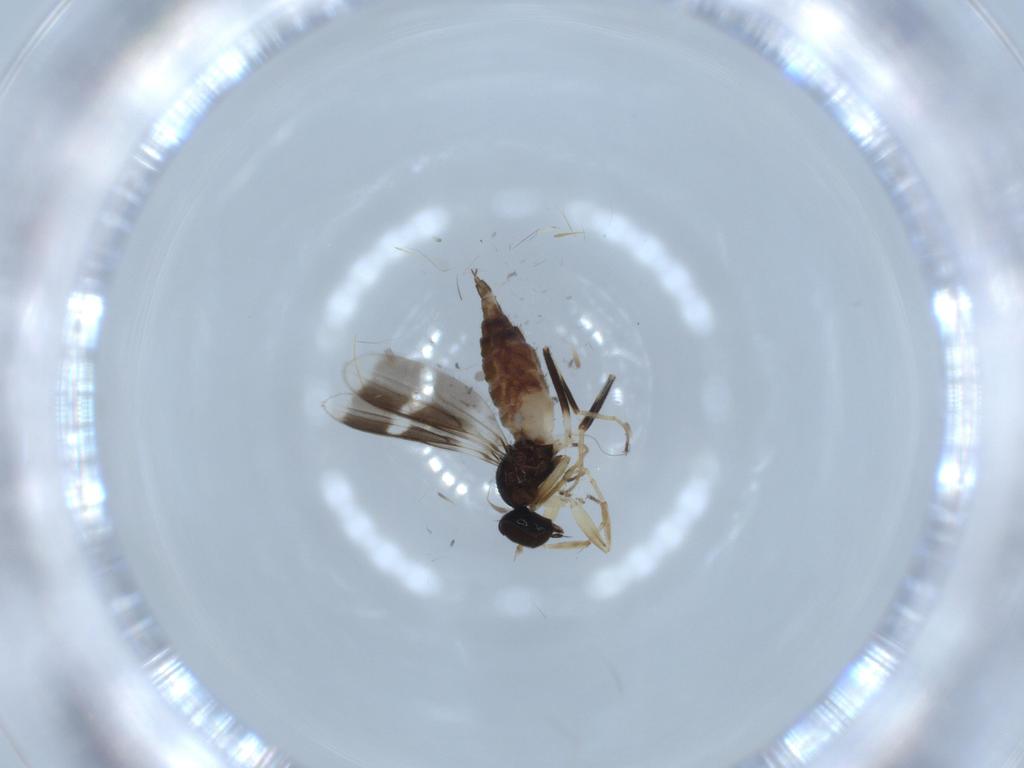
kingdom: Animalia
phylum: Arthropoda
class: Insecta
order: Diptera
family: Hybotidae
